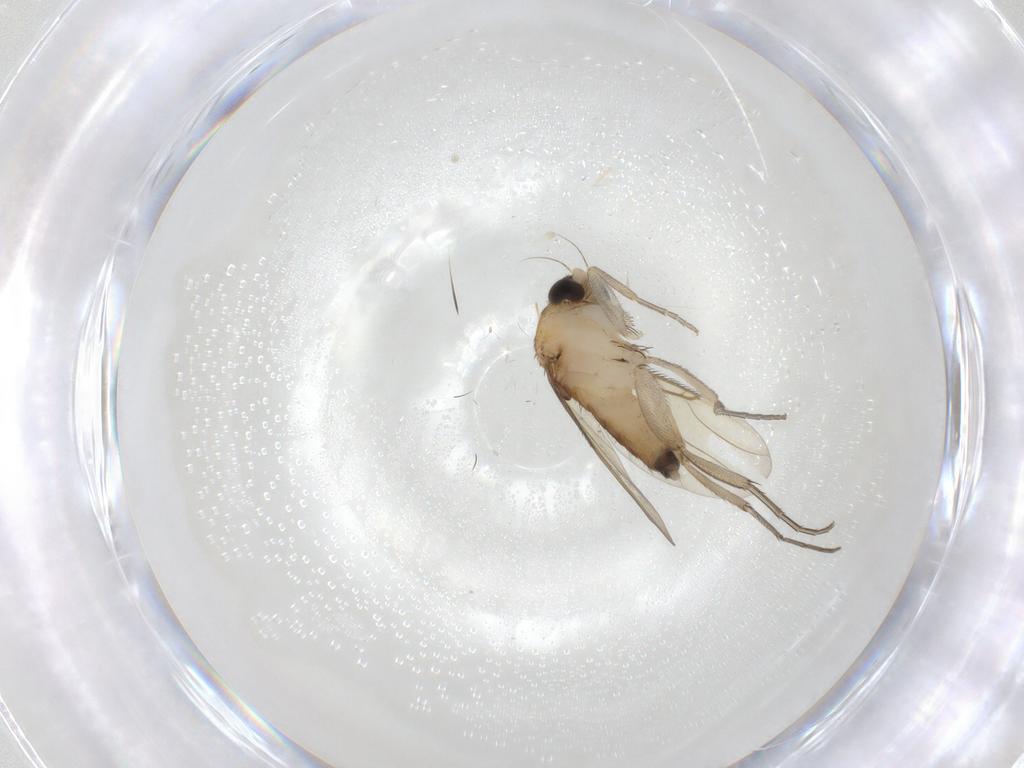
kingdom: Animalia
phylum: Arthropoda
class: Insecta
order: Diptera
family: Phoridae
